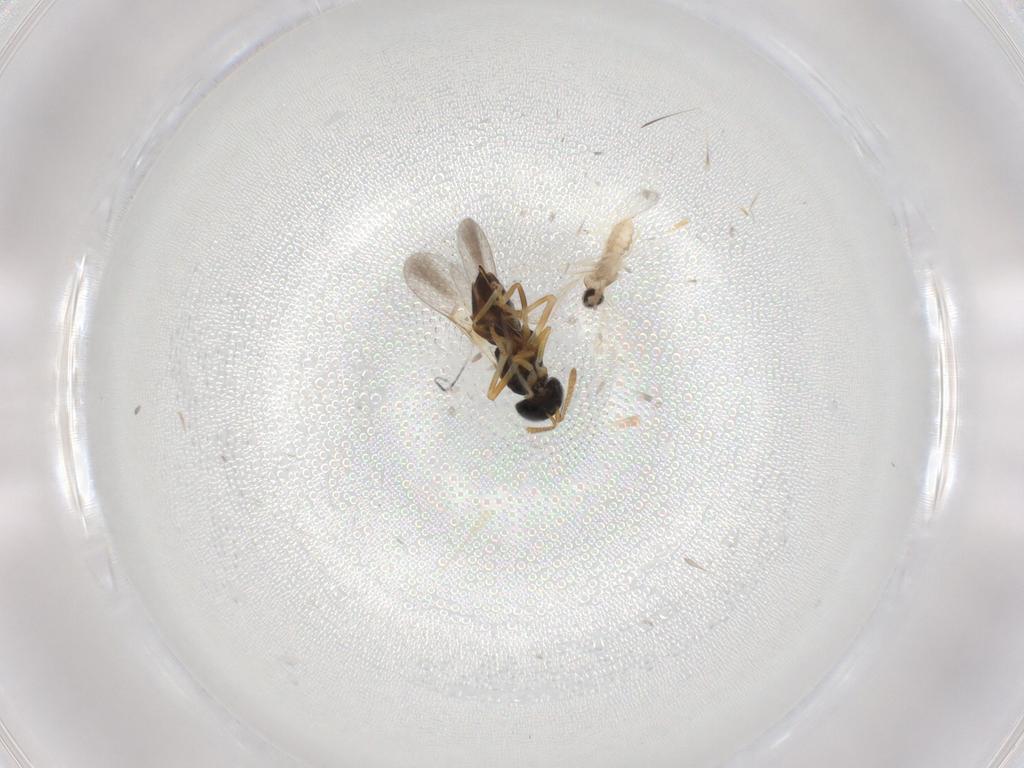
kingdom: Animalia
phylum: Arthropoda
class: Insecta
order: Diptera
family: Cecidomyiidae
